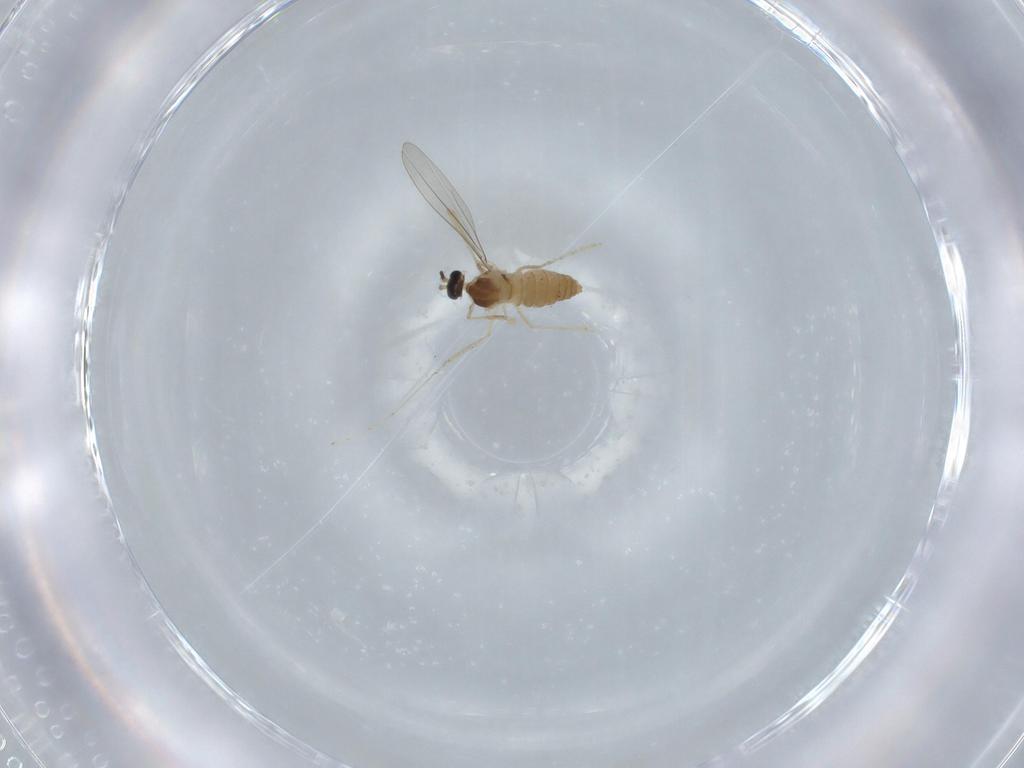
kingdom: Animalia
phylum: Arthropoda
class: Insecta
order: Diptera
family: Cecidomyiidae
